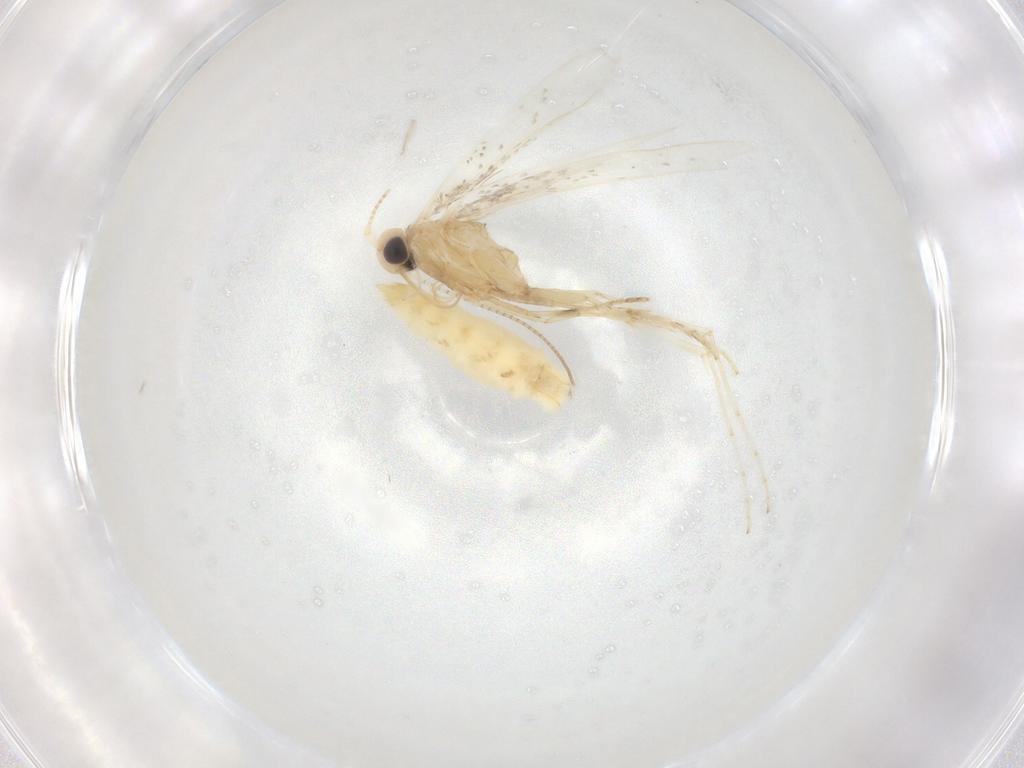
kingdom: Animalia
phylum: Arthropoda
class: Insecta
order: Lepidoptera
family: Gracillariidae
